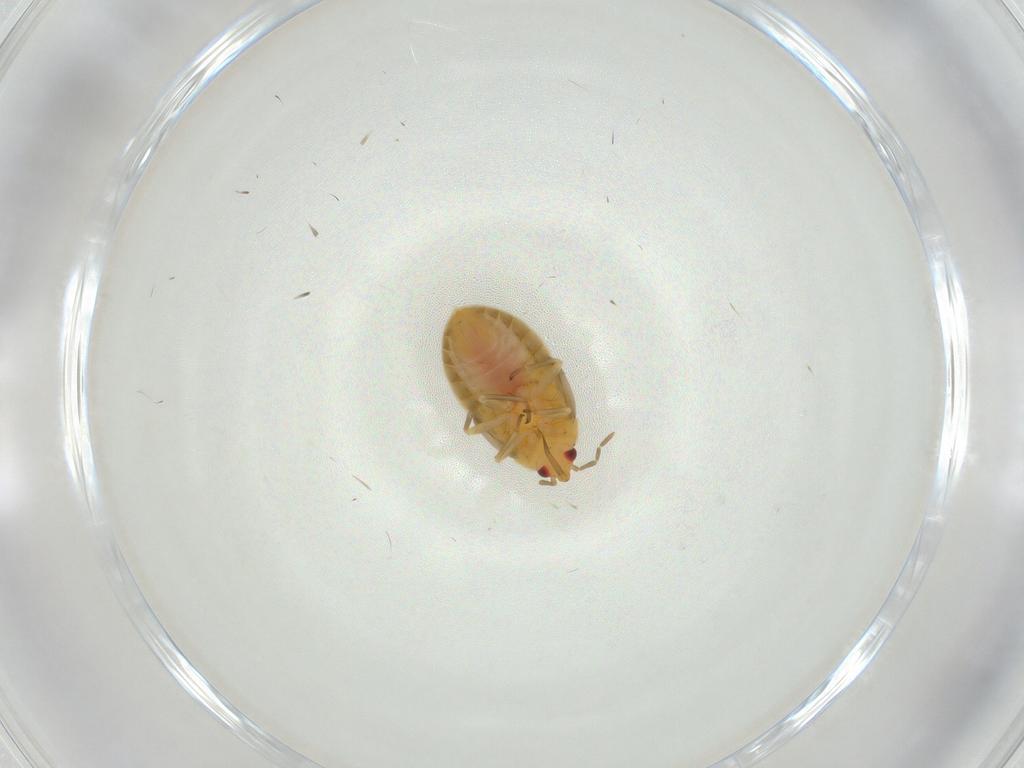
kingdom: Animalia
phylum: Arthropoda
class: Insecta
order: Hemiptera
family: Anthocoridae
